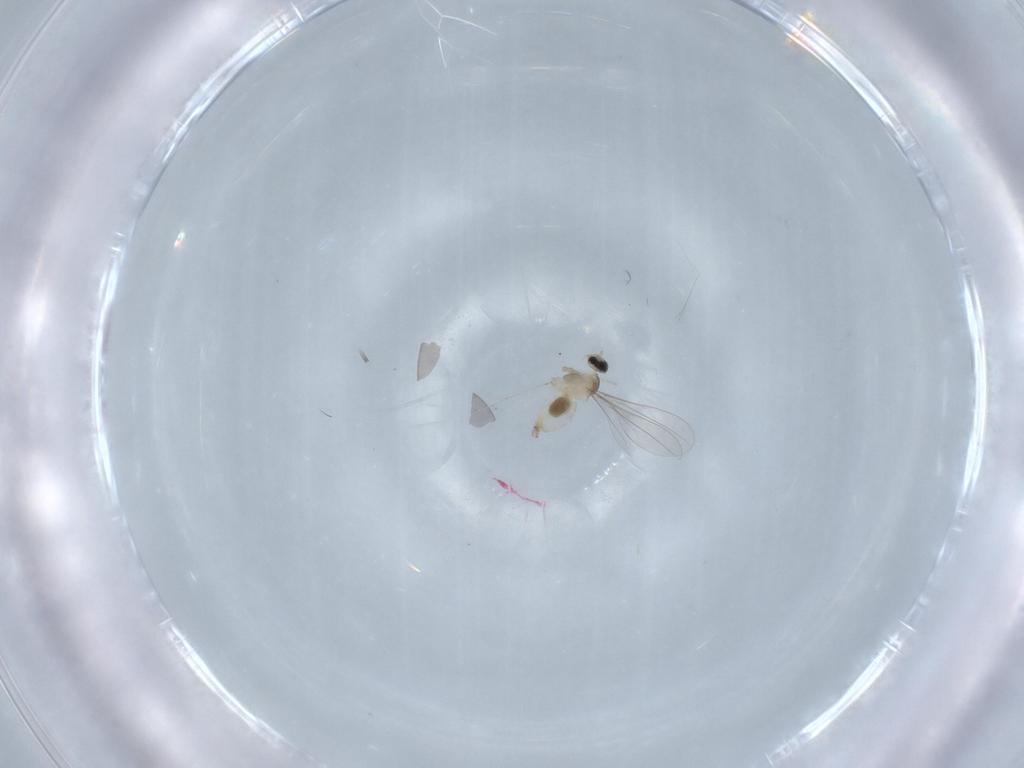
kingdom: Animalia
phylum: Arthropoda
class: Insecta
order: Diptera
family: Cecidomyiidae
